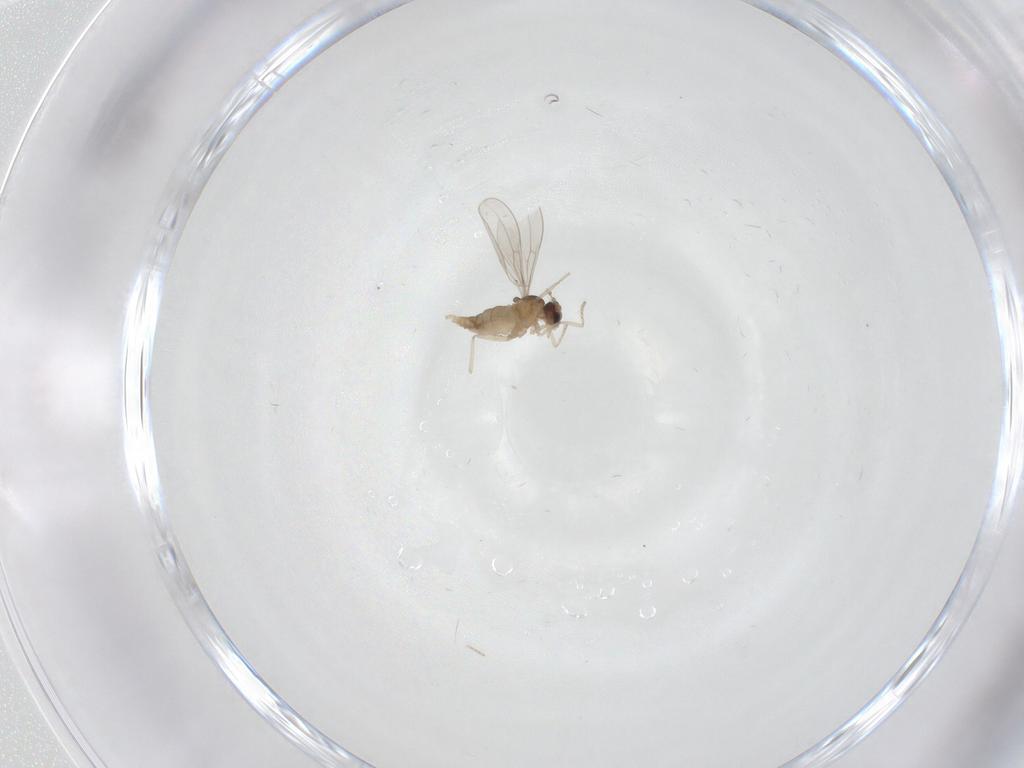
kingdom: Animalia
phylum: Arthropoda
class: Insecta
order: Diptera
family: Cecidomyiidae
